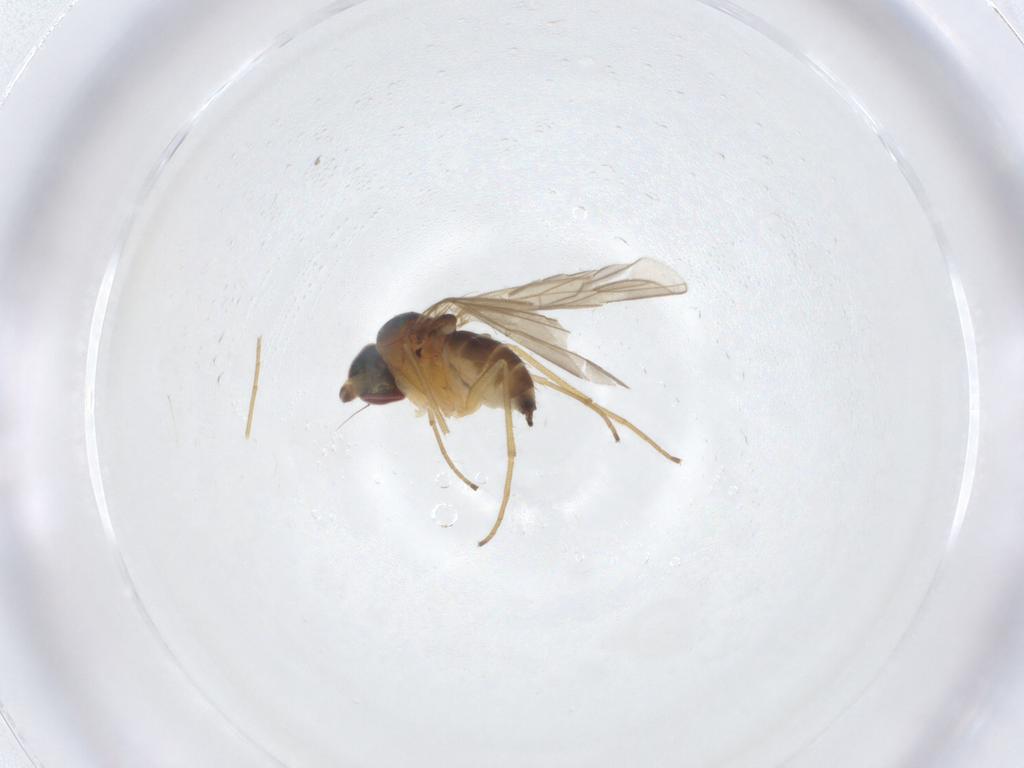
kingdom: Animalia
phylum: Arthropoda
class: Insecta
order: Diptera
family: Dolichopodidae
